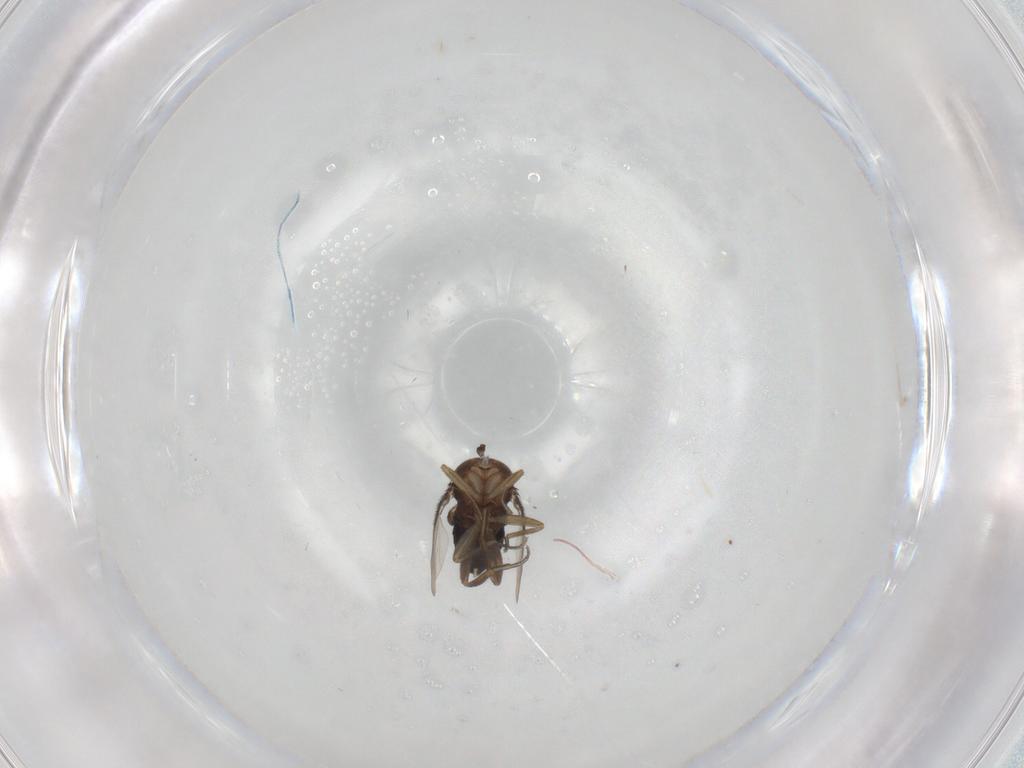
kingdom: Animalia
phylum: Arthropoda
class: Insecta
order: Diptera
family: Phoridae
